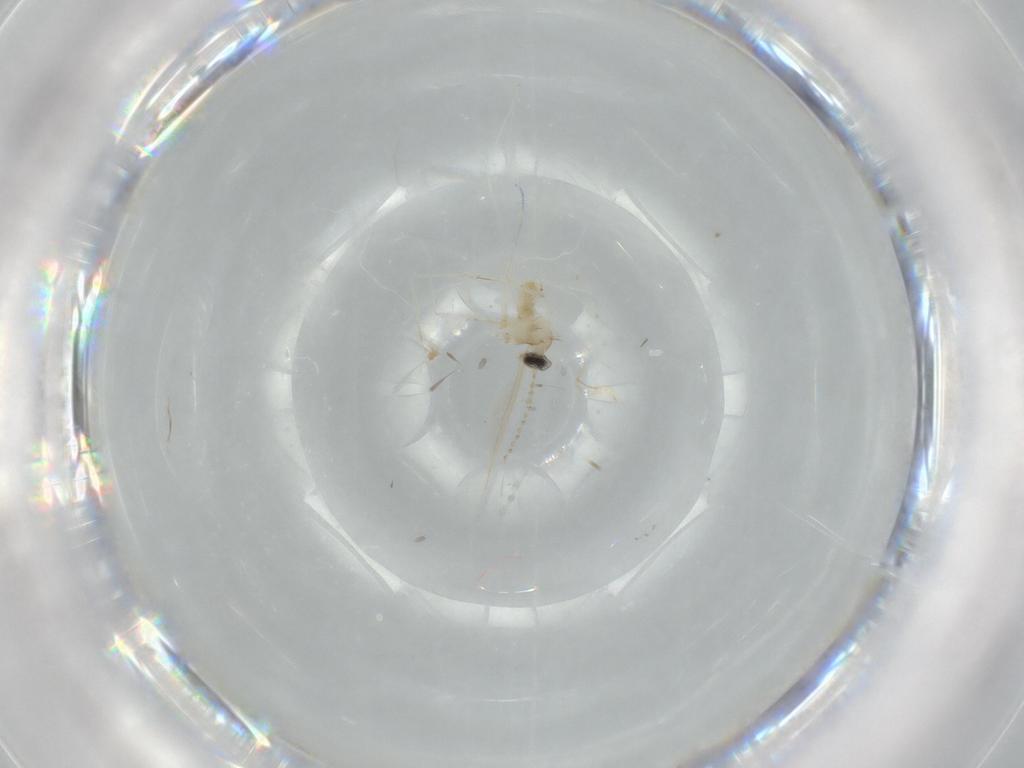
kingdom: Animalia
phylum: Arthropoda
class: Insecta
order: Diptera
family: Cecidomyiidae
